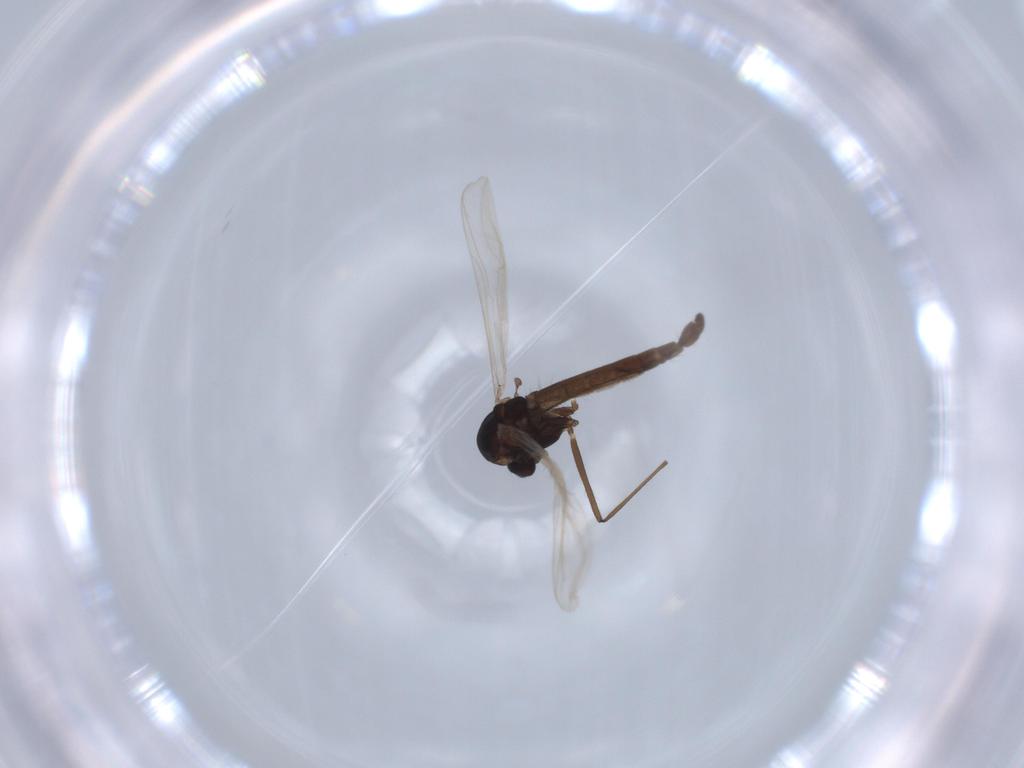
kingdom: Animalia
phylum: Arthropoda
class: Insecta
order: Diptera
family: Chironomidae
